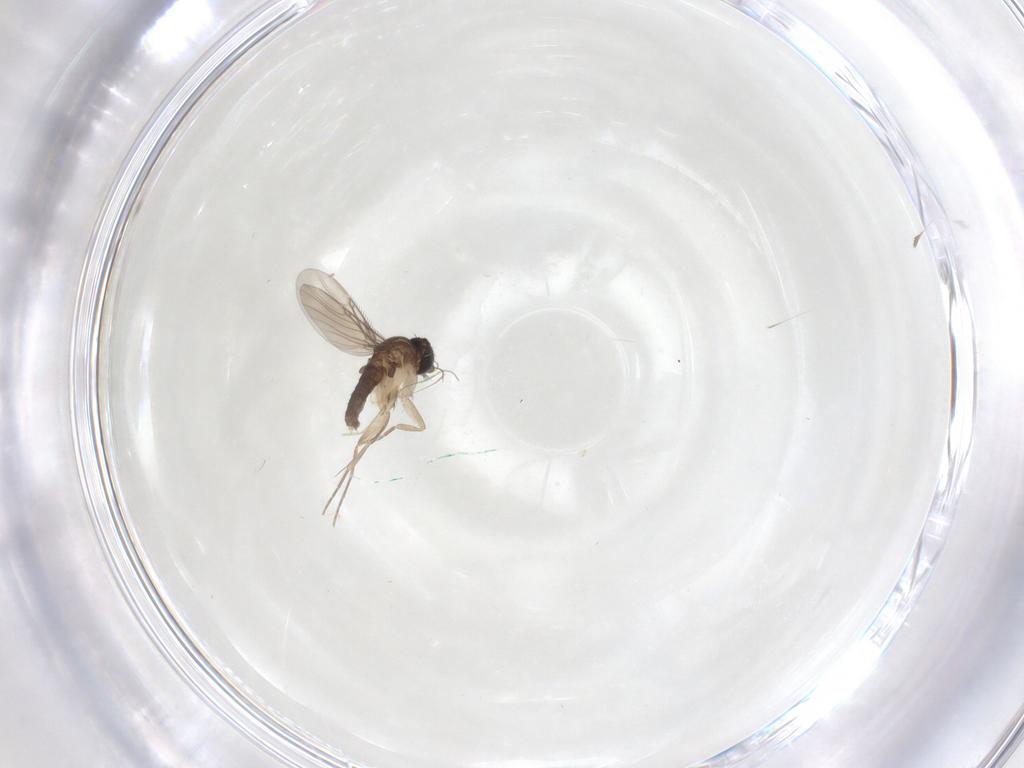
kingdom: Animalia
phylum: Arthropoda
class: Insecta
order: Diptera
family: Phoridae
